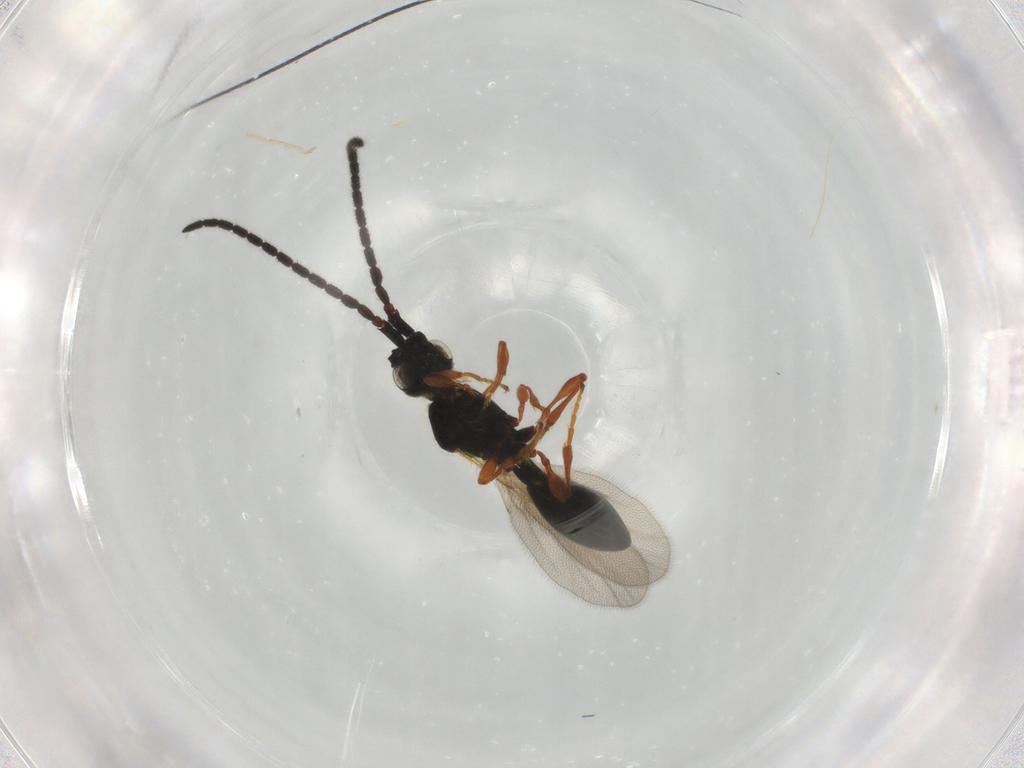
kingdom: Animalia
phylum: Arthropoda
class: Insecta
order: Hymenoptera
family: Diapriidae
